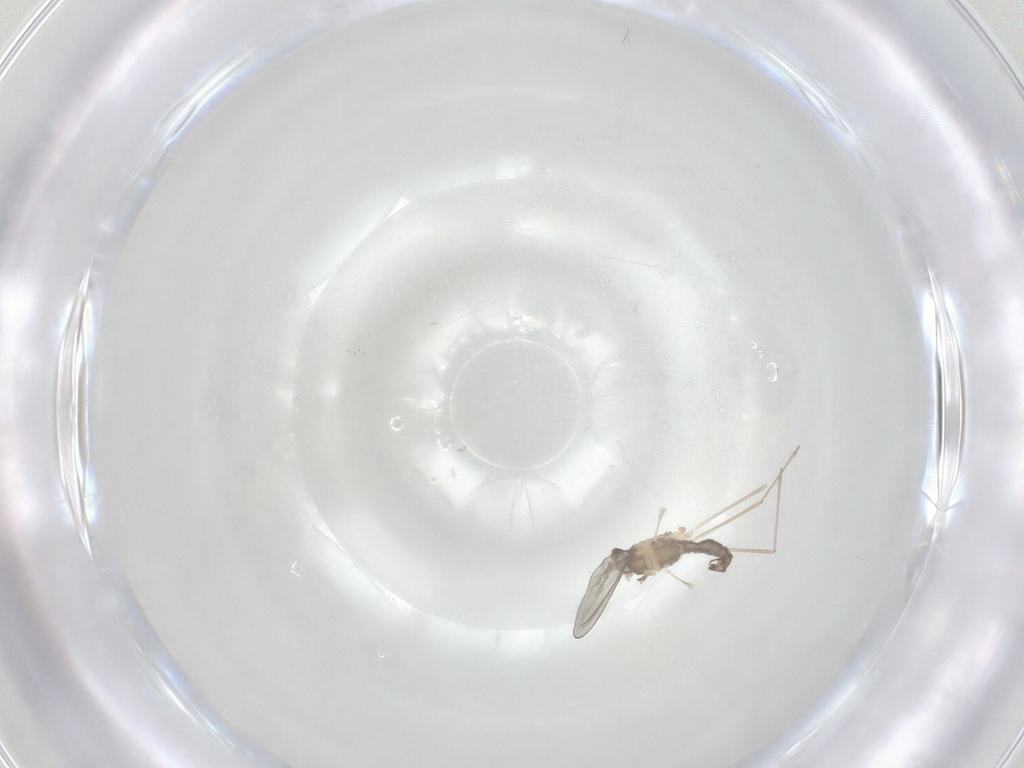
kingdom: Animalia
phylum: Arthropoda
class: Insecta
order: Diptera
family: Cecidomyiidae
